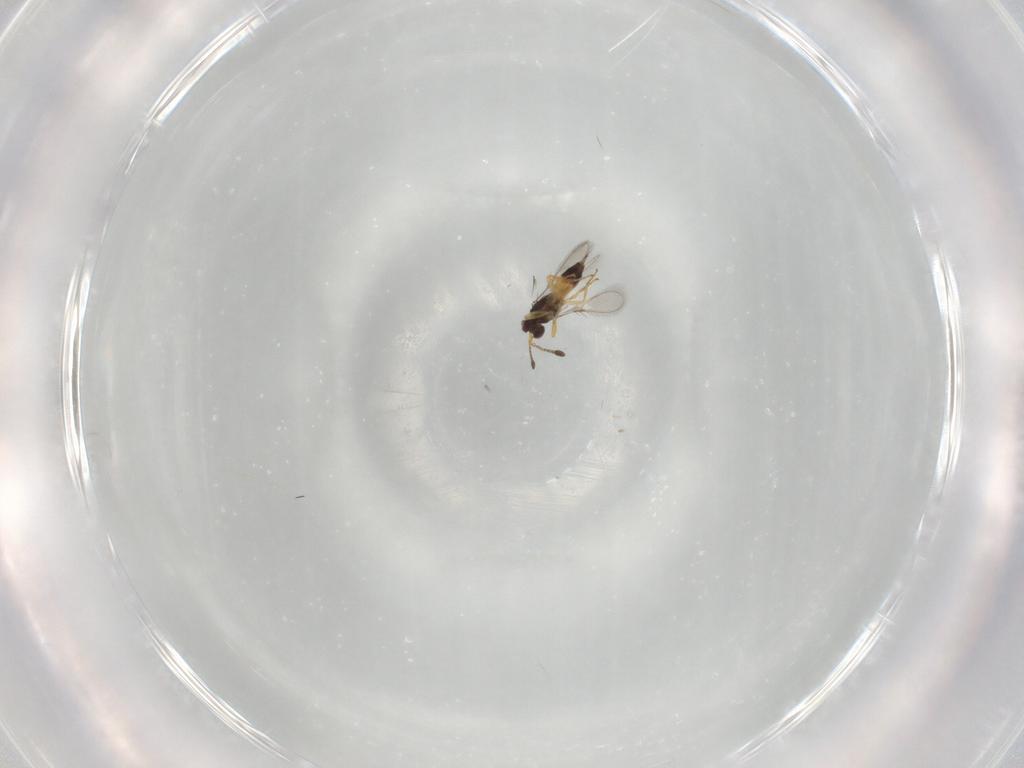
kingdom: Animalia
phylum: Arthropoda
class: Insecta
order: Hymenoptera
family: Mymaridae
